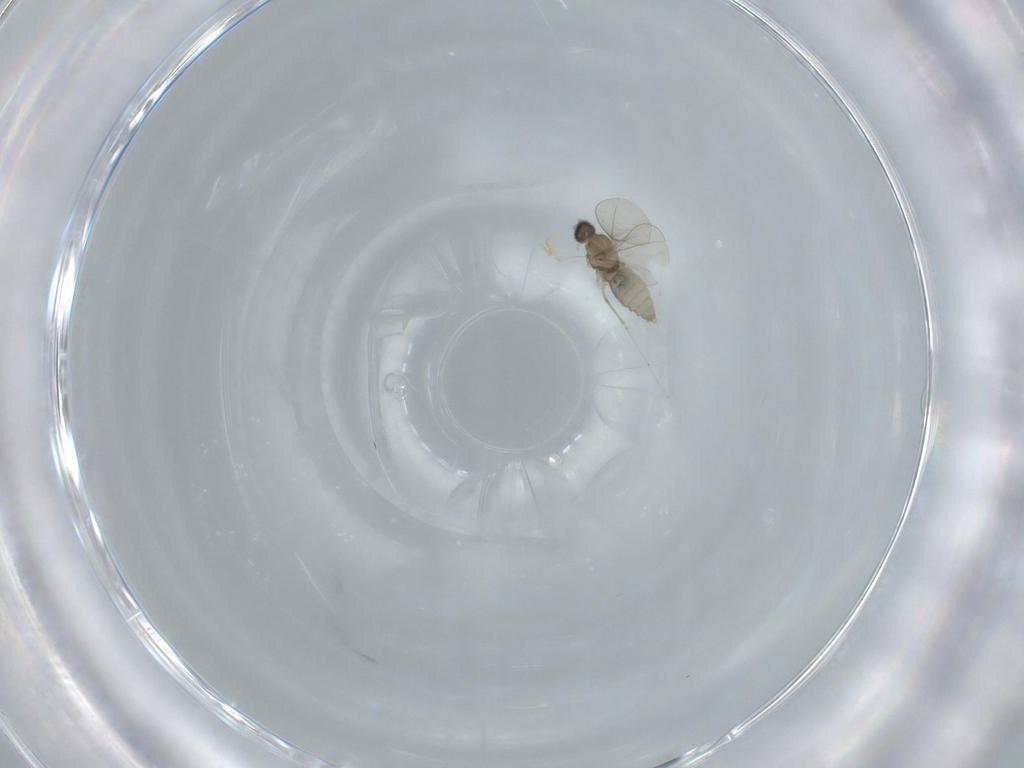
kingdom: Animalia
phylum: Arthropoda
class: Insecta
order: Diptera
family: Cecidomyiidae
